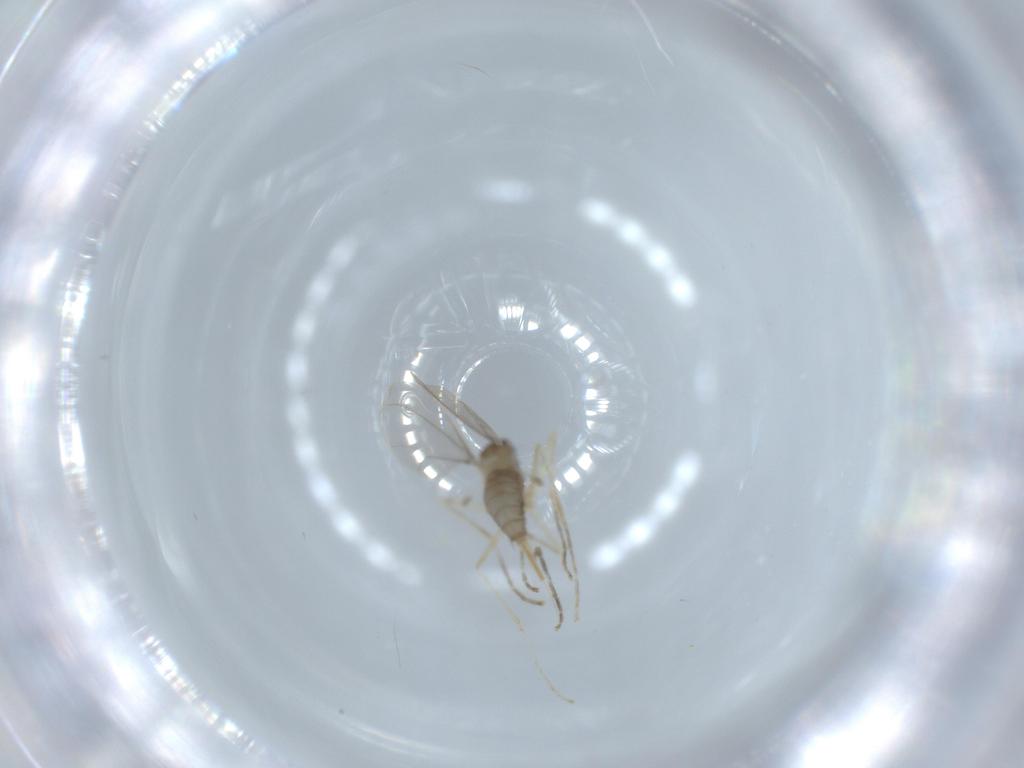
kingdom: Animalia
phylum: Arthropoda
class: Insecta
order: Diptera
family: Cecidomyiidae
